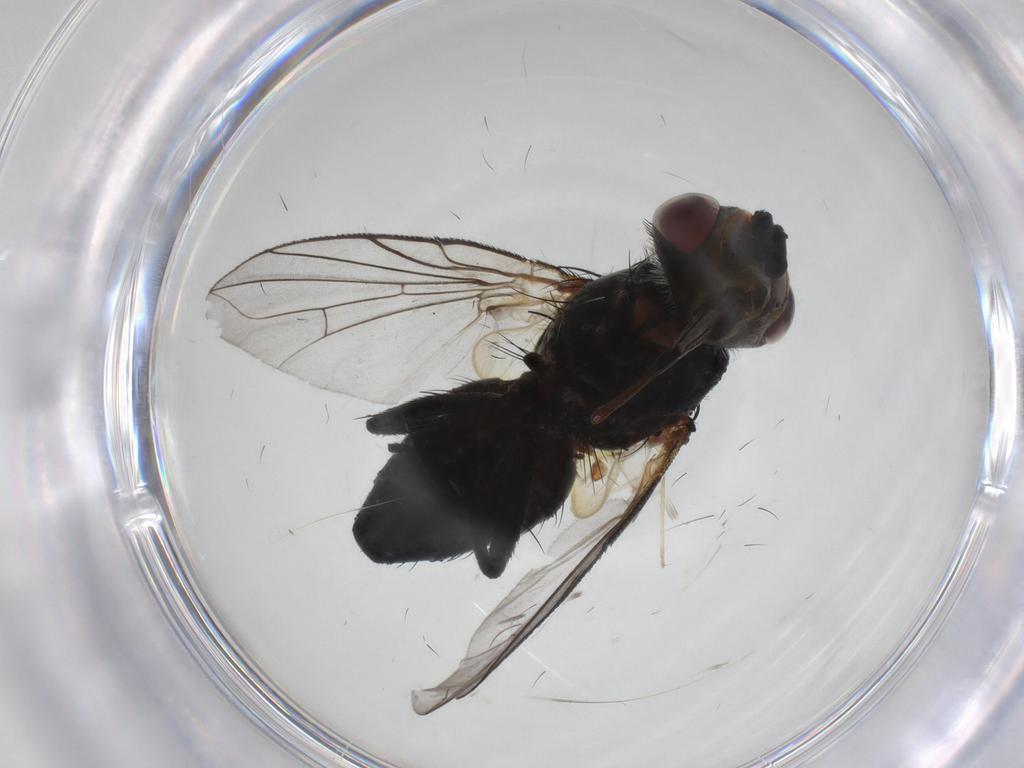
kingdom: Animalia
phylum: Arthropoda
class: Insecta
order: Diptera
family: Tachinidae
